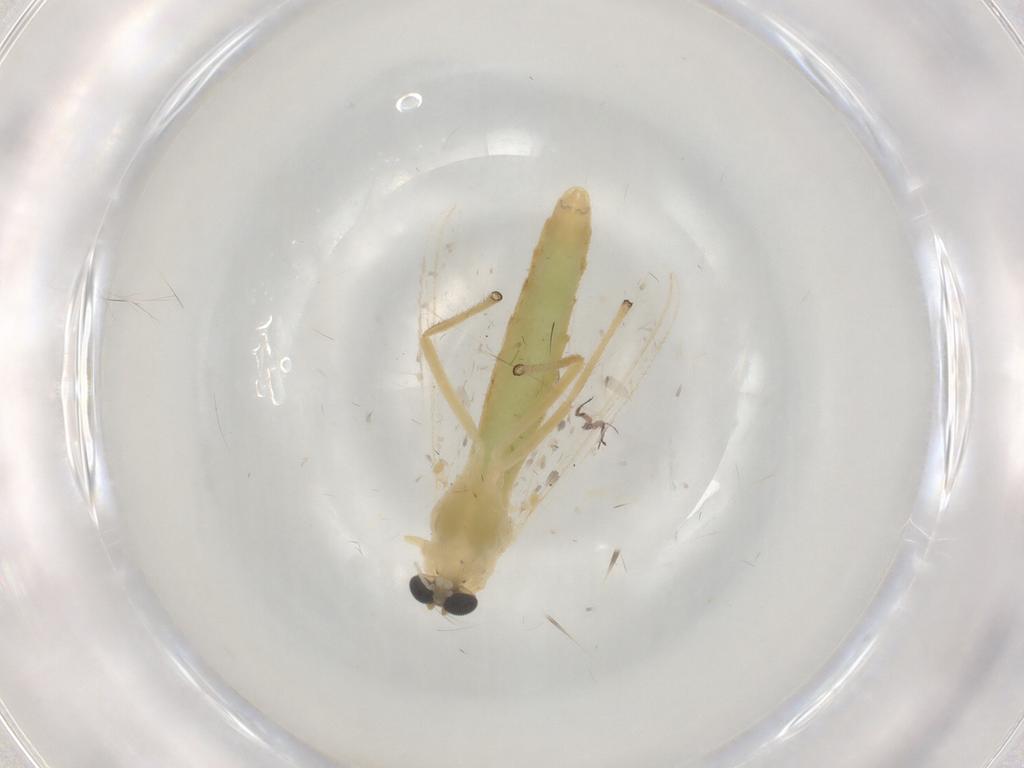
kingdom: Animalia
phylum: Arthropoda
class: Insecta
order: Diptera
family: Chironomidae
